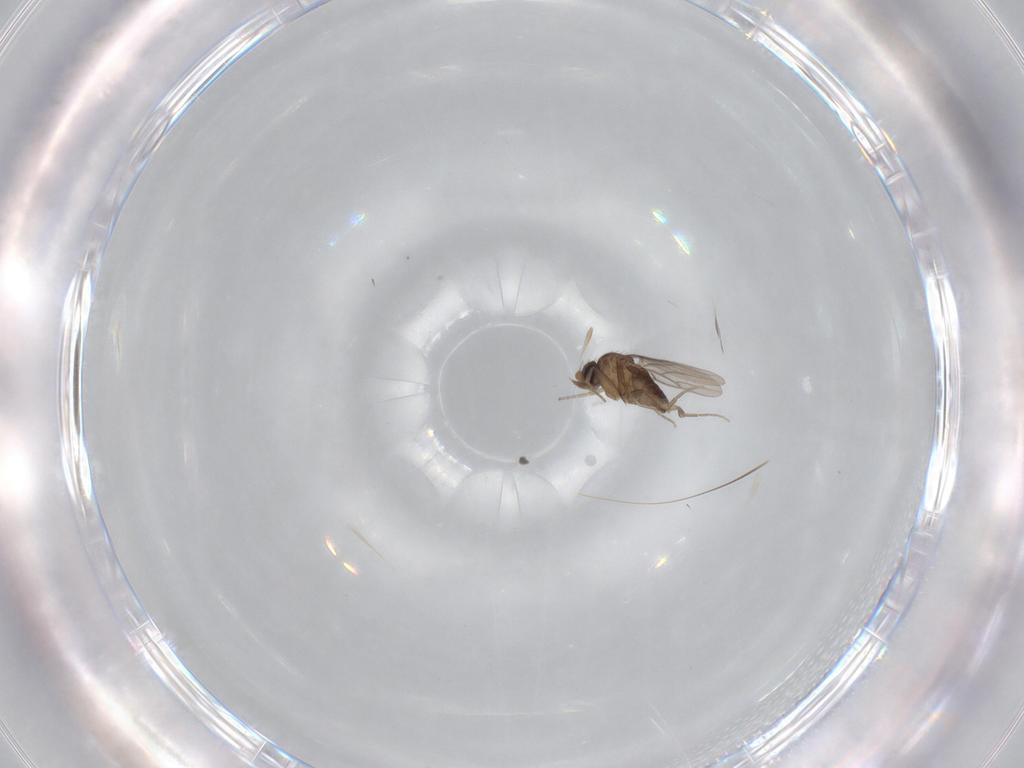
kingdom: Animalia
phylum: Arthropoda
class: Insecta
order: Diptera
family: Phoridae
